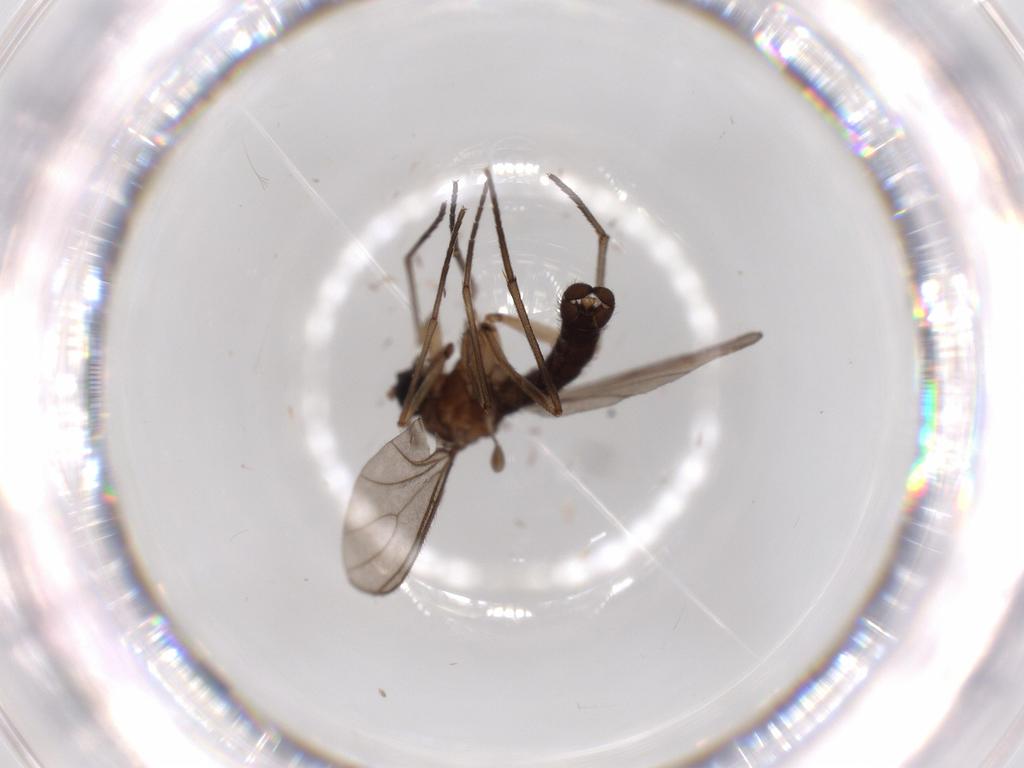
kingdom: Animalia
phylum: Arthropoda
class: Insecta
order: Diptera
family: Sciaridae
